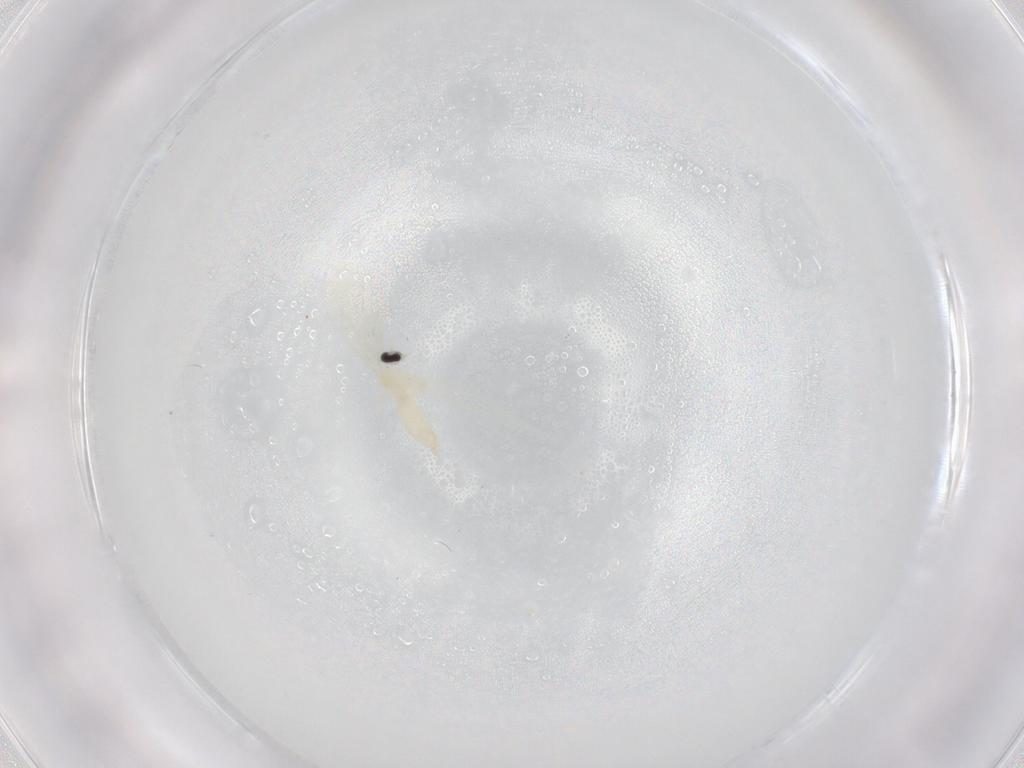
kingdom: Animalia
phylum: Arthropoda
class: Insecta
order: Diptera
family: Cecidomyiidae
